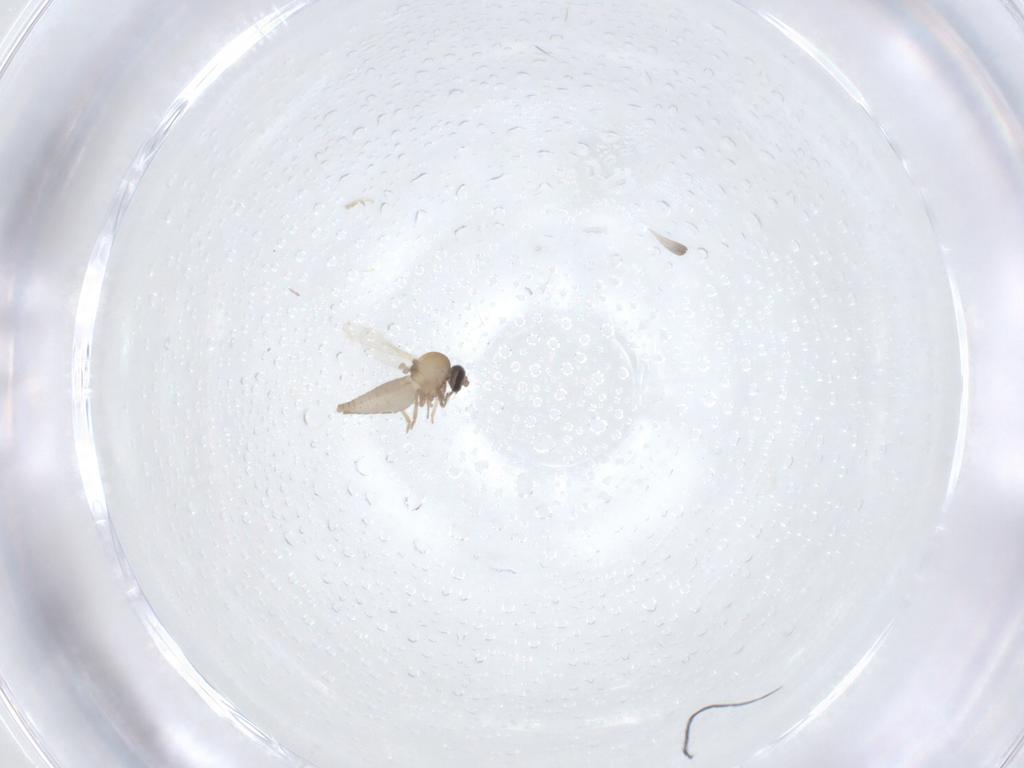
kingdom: Animalia
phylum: Arthropoda
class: Insecta
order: Diptera
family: Ceratopogonidae
